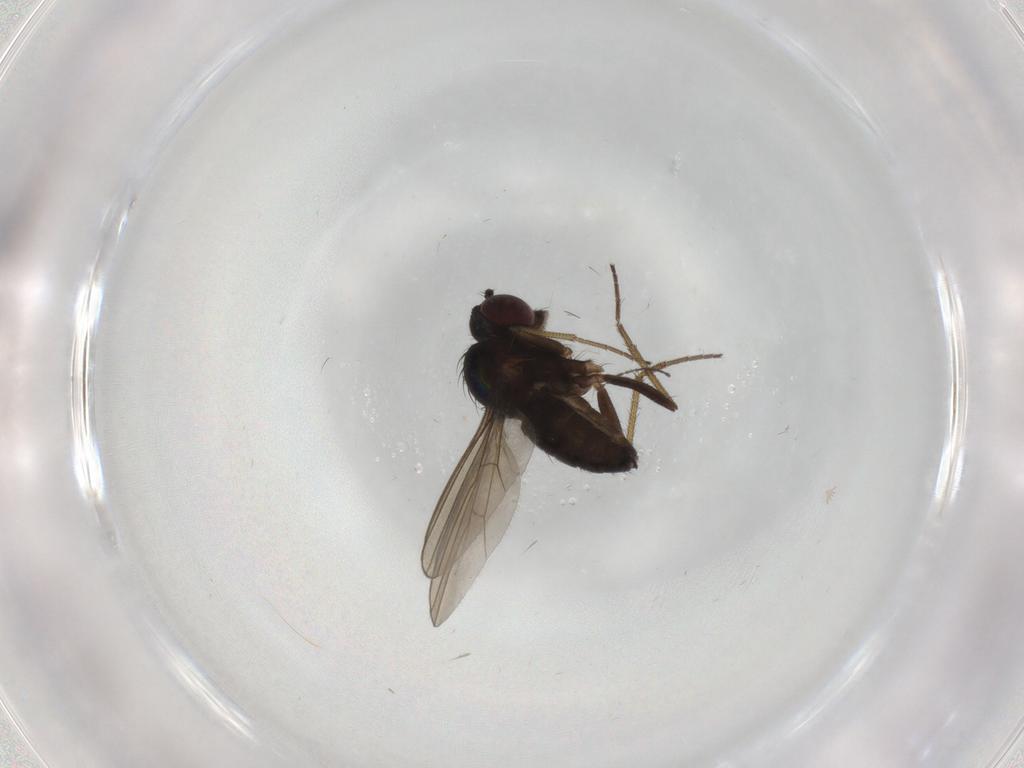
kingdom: Animalia
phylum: Arthropoda
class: Insecta
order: Diptera
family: Dolichopodidae
